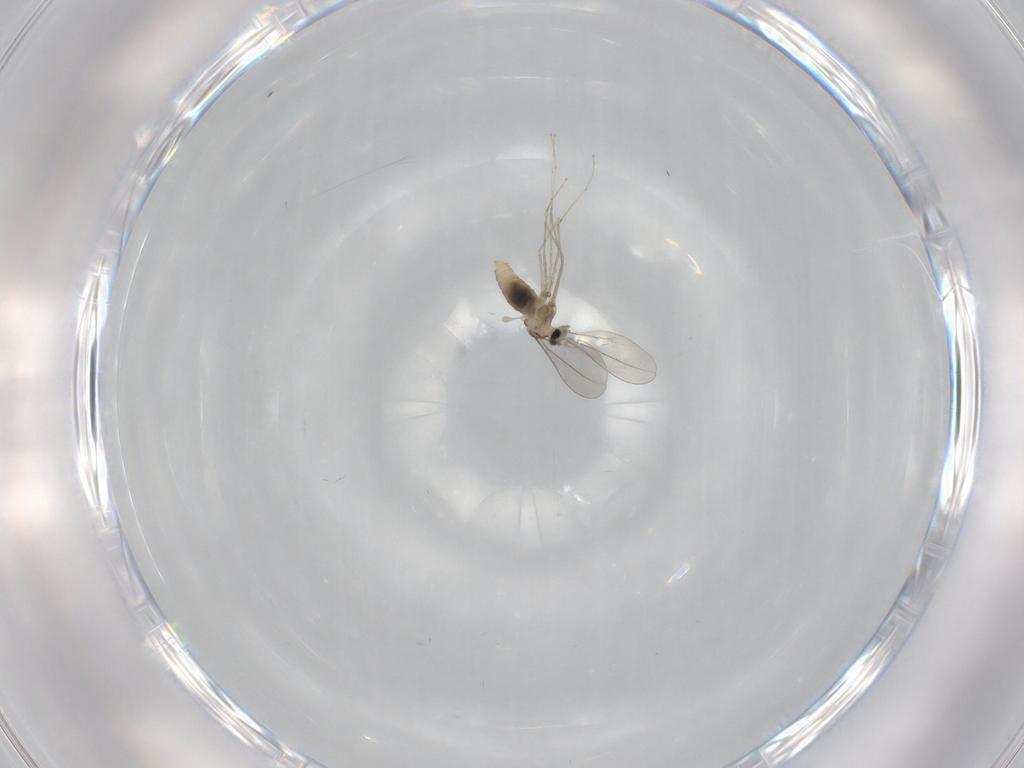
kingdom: Animalia
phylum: Arthropoda
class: Insecta
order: Diptera
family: Cecidomyiidae
